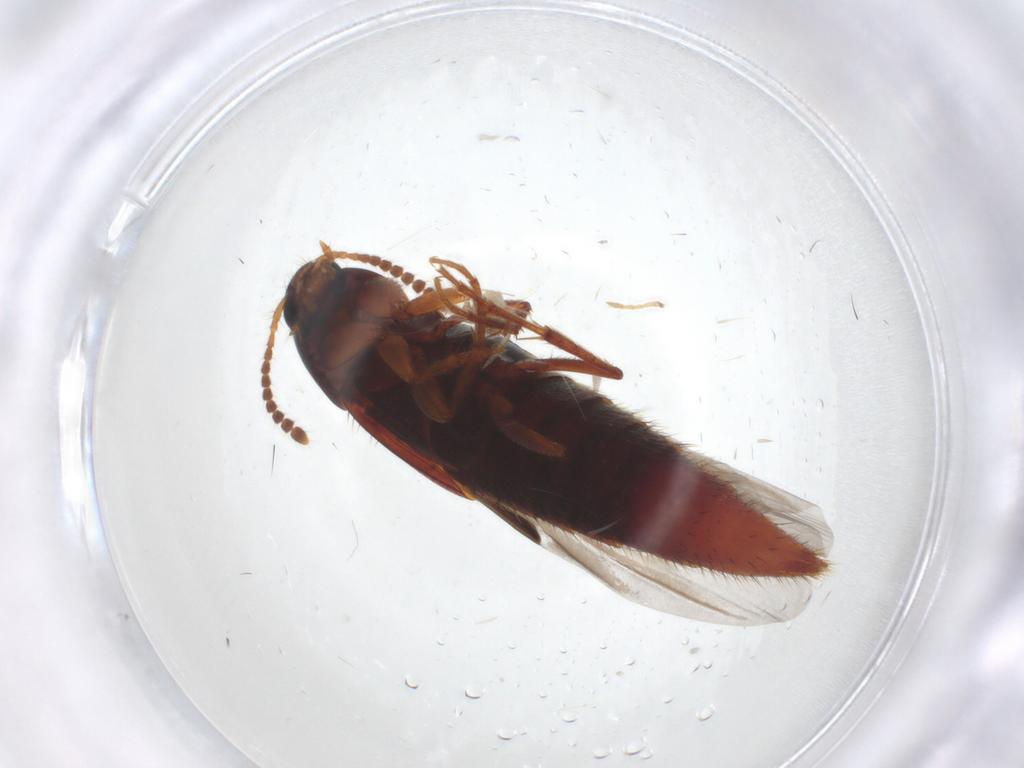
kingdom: Animalia
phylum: Arthropoda
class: Insecta
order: Coleoptera
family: Staphylinidae
